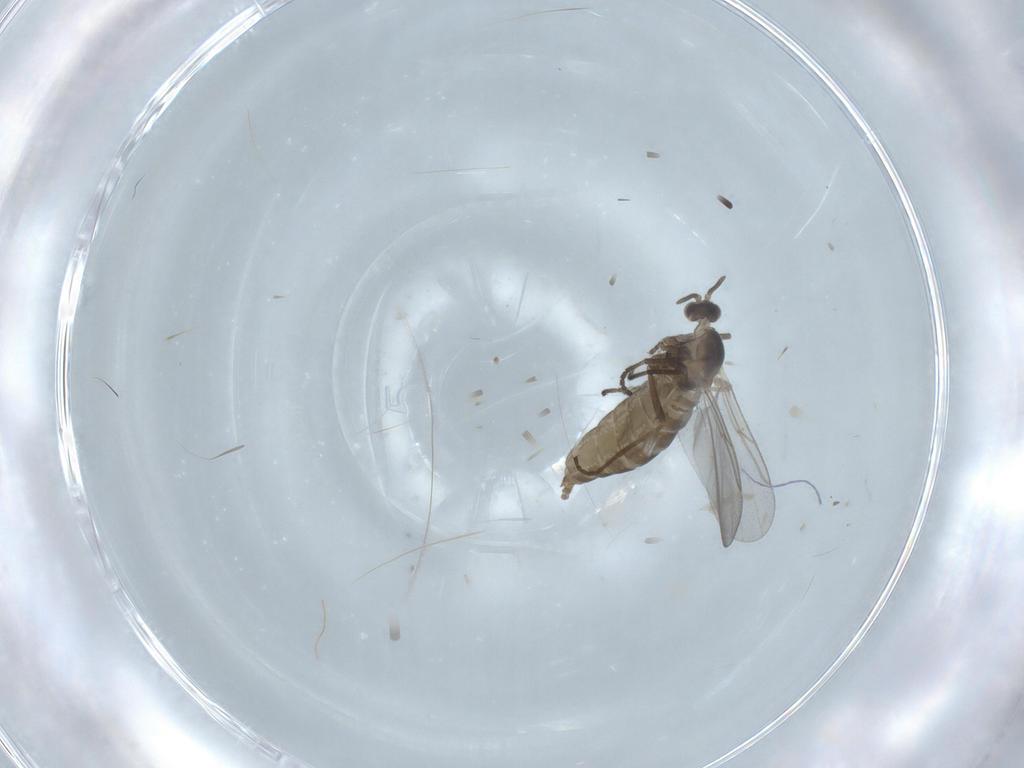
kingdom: Animalia
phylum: Arthropoda
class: Insecta
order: Diptera
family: Cecidomyiidae
